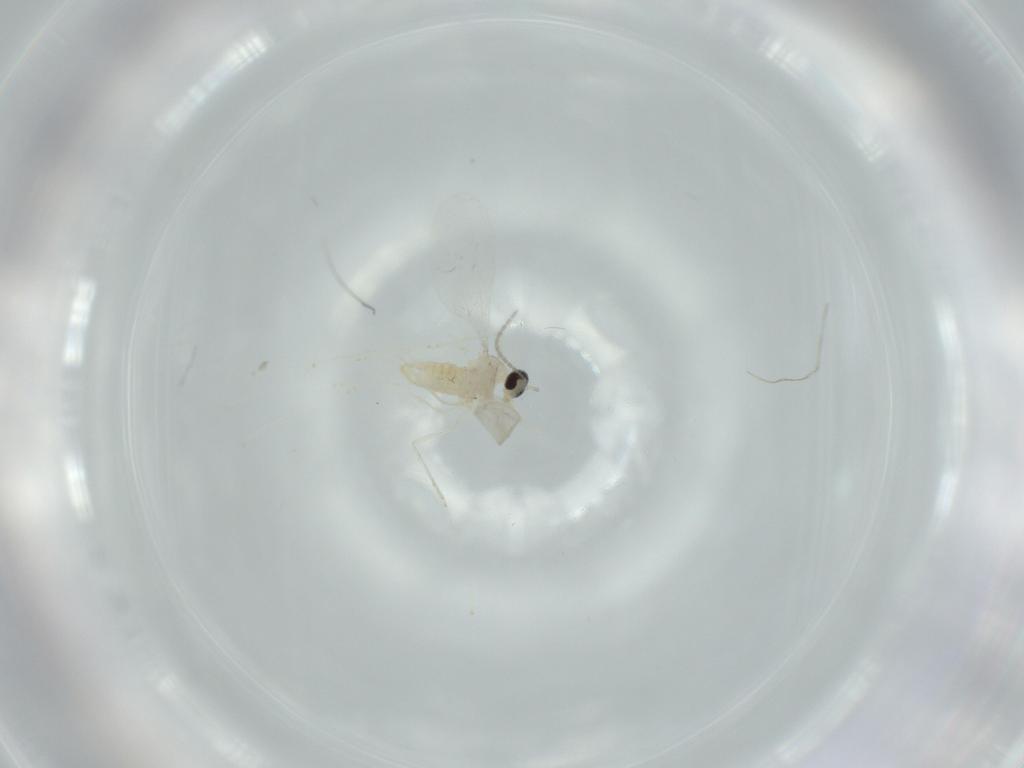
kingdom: Animalia
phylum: Arthropoda
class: Insecta
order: Diptera
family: Cecidomyiidae
